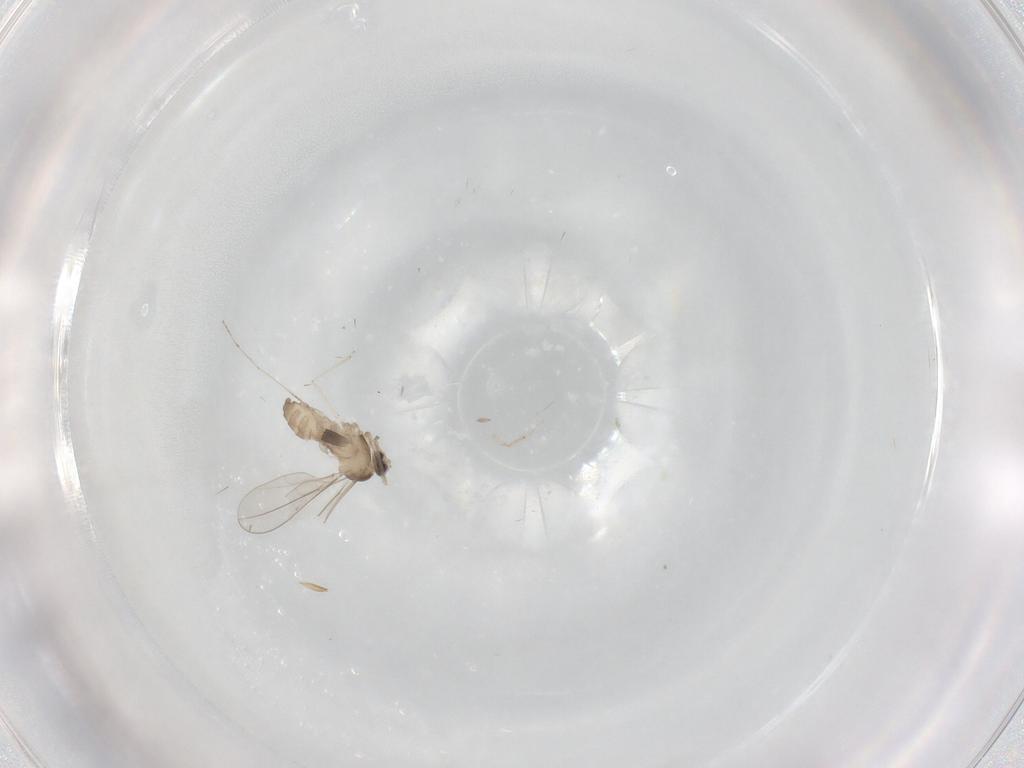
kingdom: Animalia
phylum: Arthropoda
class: Insecta
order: Diptera
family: Cecidomyiidae
